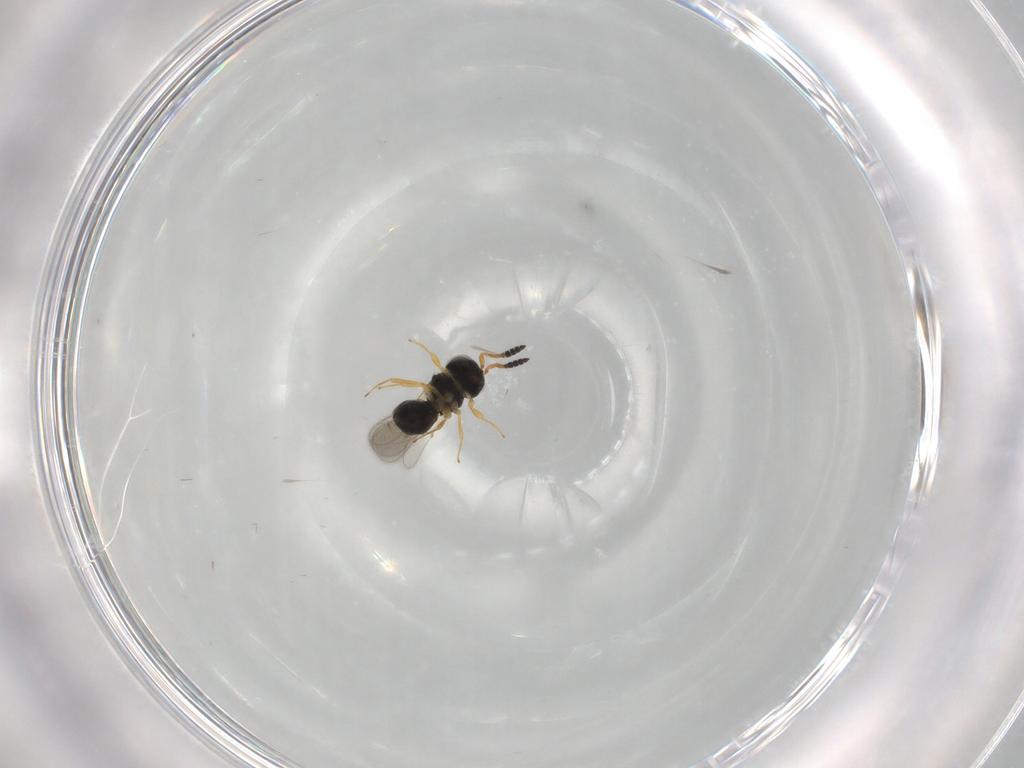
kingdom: Animalia
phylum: Arthropoda
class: Insecta
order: Hymenoptera
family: Scelionidae
